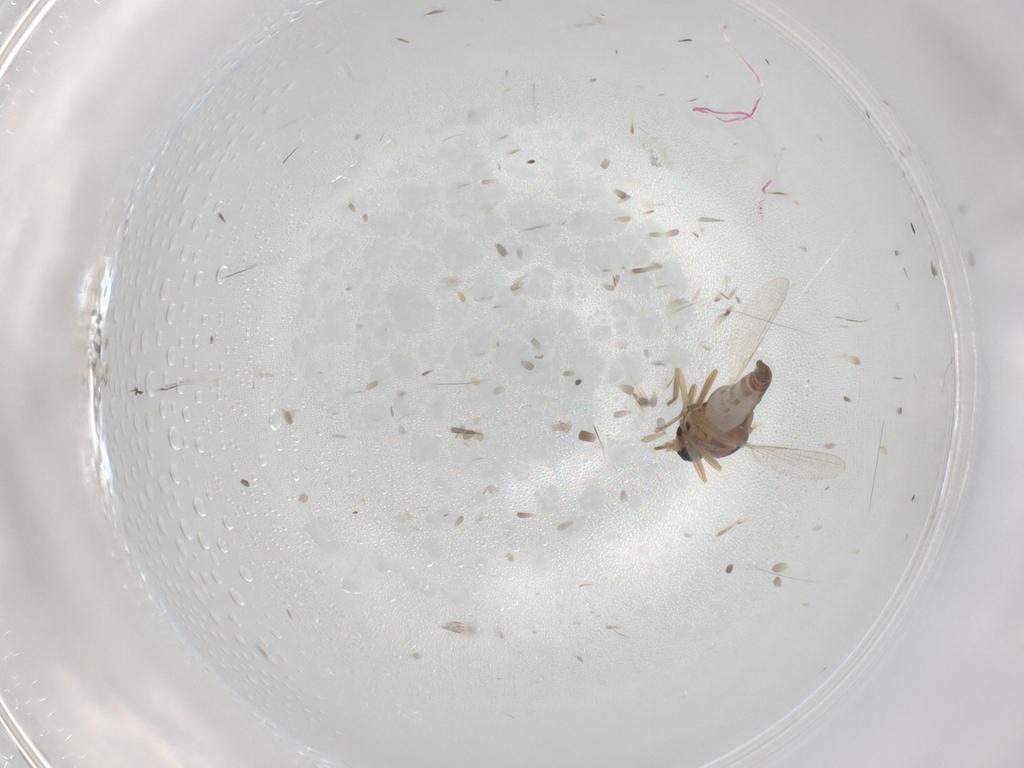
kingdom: Animalia
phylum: Arthropoda
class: Insecta
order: Diptera
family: Ceratopogonidae
